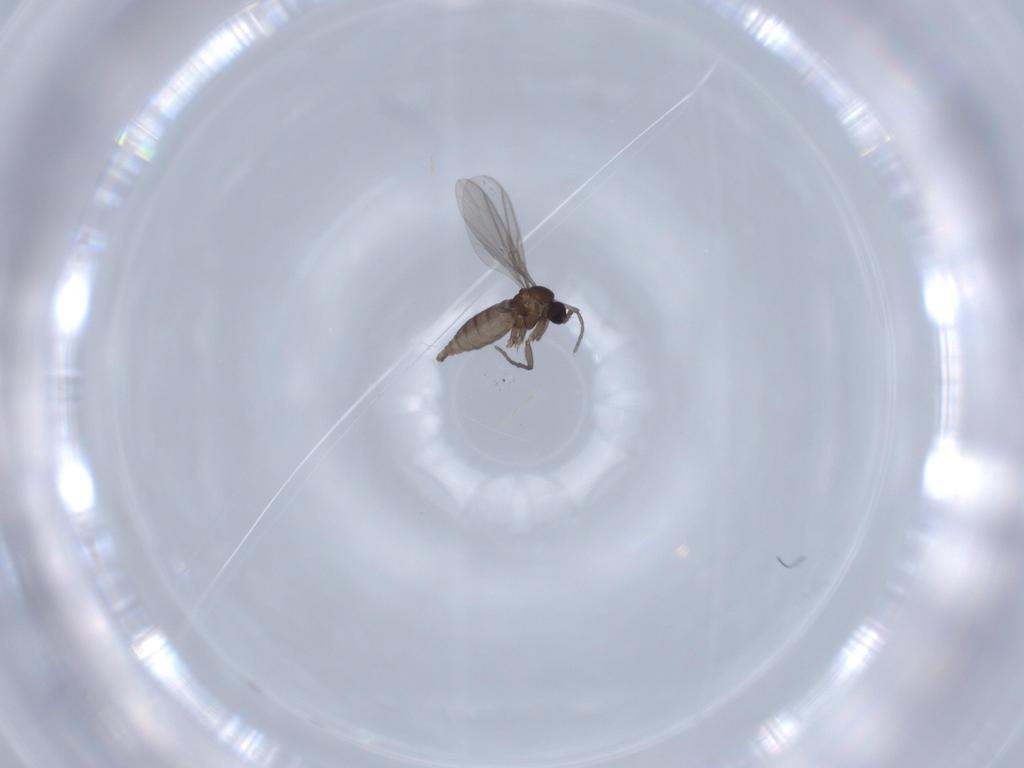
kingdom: Animalia
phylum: Arthropoda
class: Insecta
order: Diptera
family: Sciaridae
